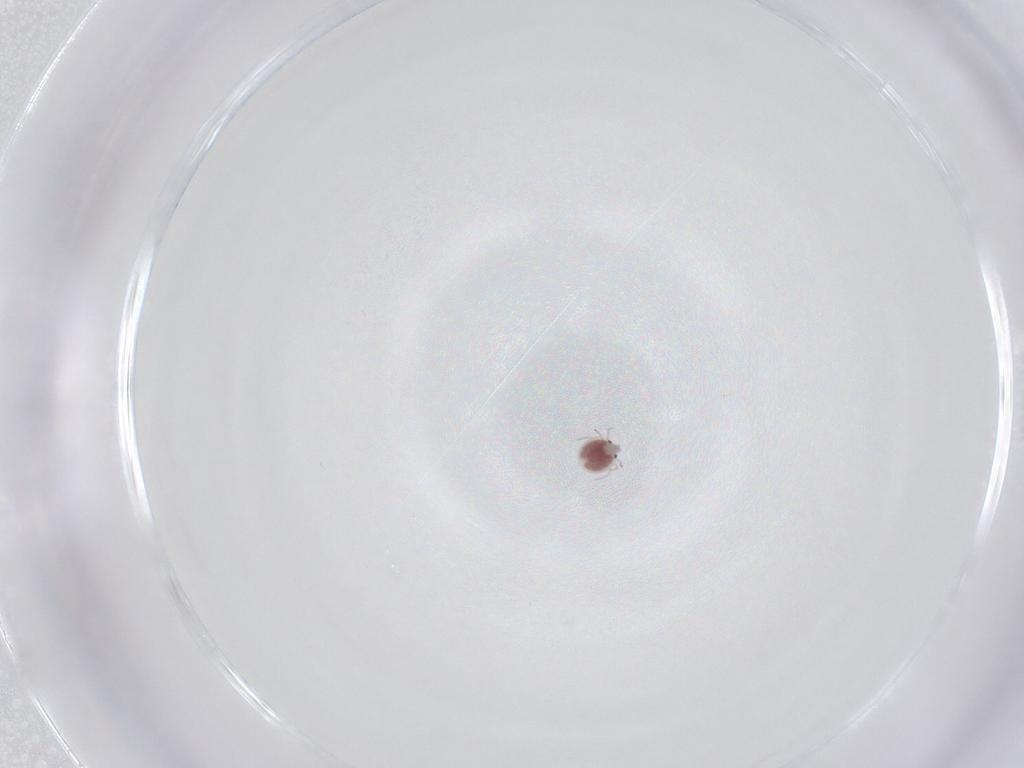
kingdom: Animalia
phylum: Arthropoda
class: Arachnida
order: Trombidiformes
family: Pionidae
